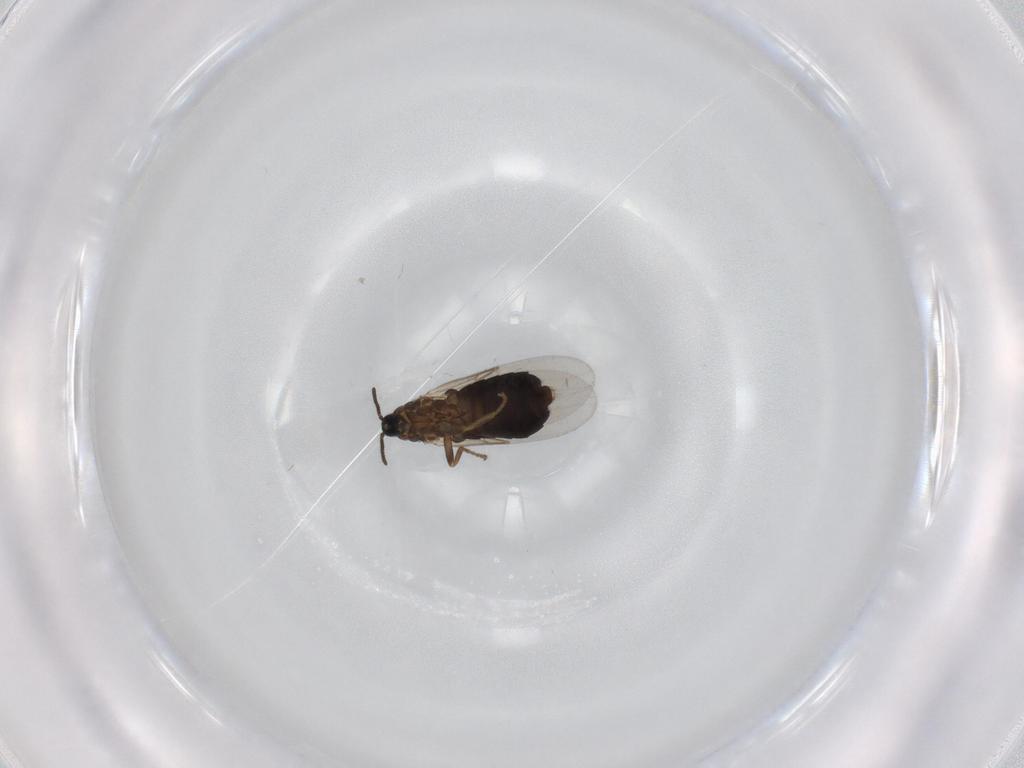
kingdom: Animalia
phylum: Arthropoda
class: Insecta
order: Diptera
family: Scatopsidae
